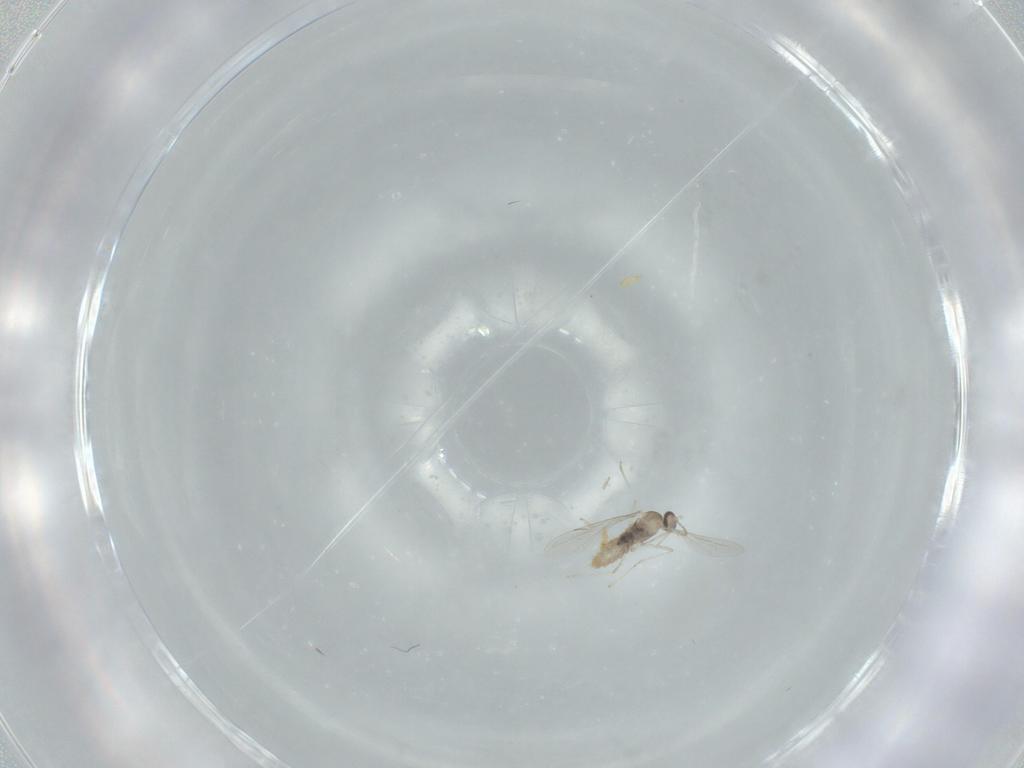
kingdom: Animalia
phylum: Arthropoda
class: Insecta
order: Diptera
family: Cecidomyiidae
